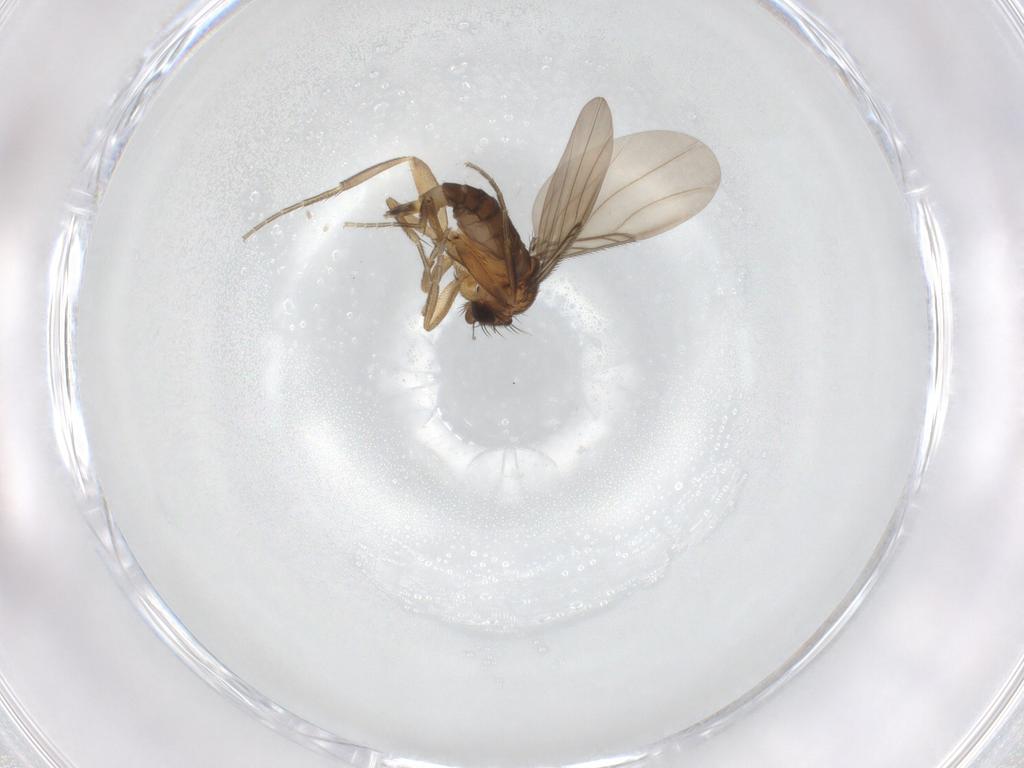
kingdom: Animalia
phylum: Arthropoda
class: Insecta
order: Diptera
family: Phoridae
